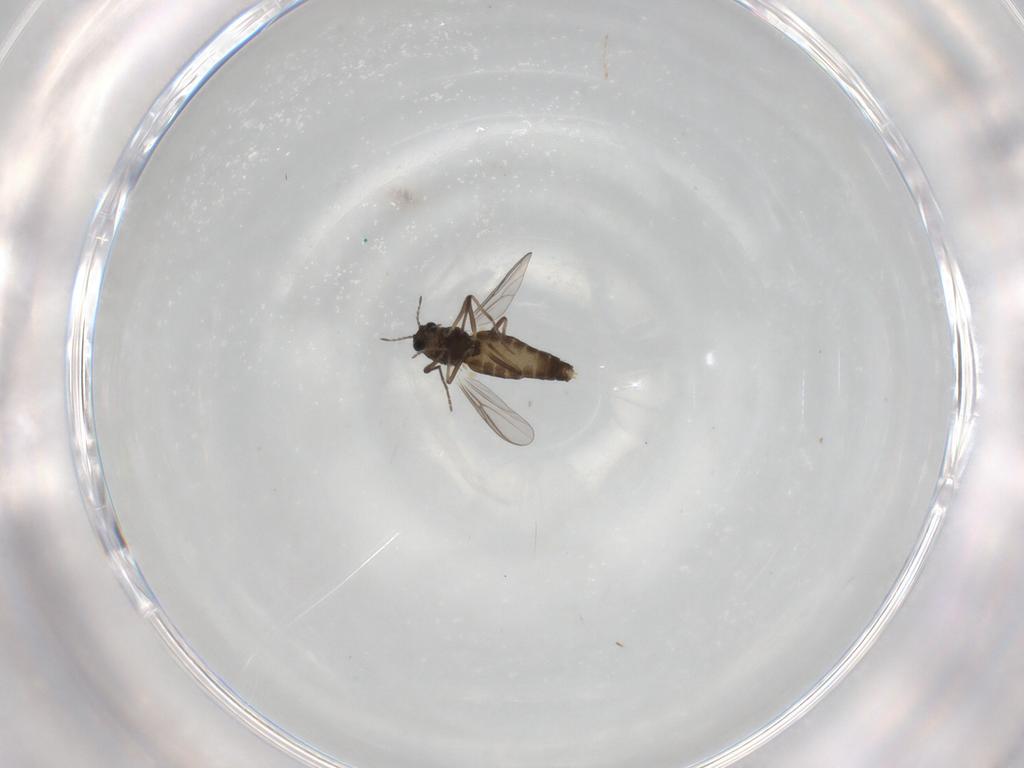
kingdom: Animalia
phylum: Arthropoda
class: Insecta
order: Diptera
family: Chironomidae
